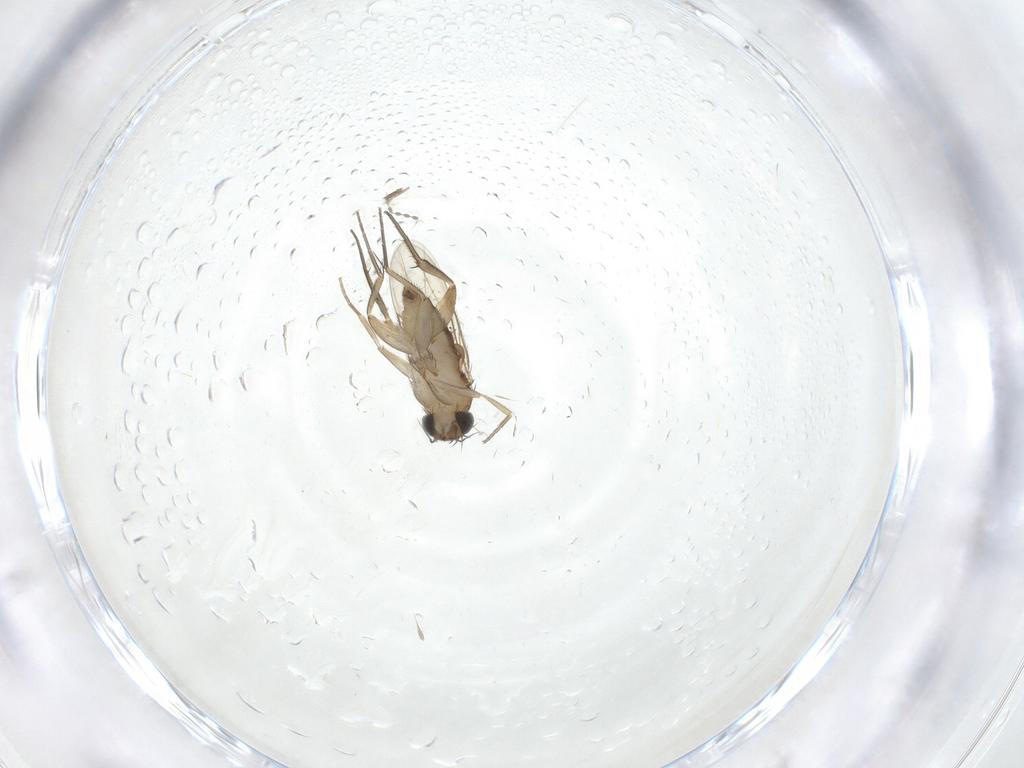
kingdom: Animalia
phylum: Arthropoda
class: Insecta
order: Diptera
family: Phoridae
